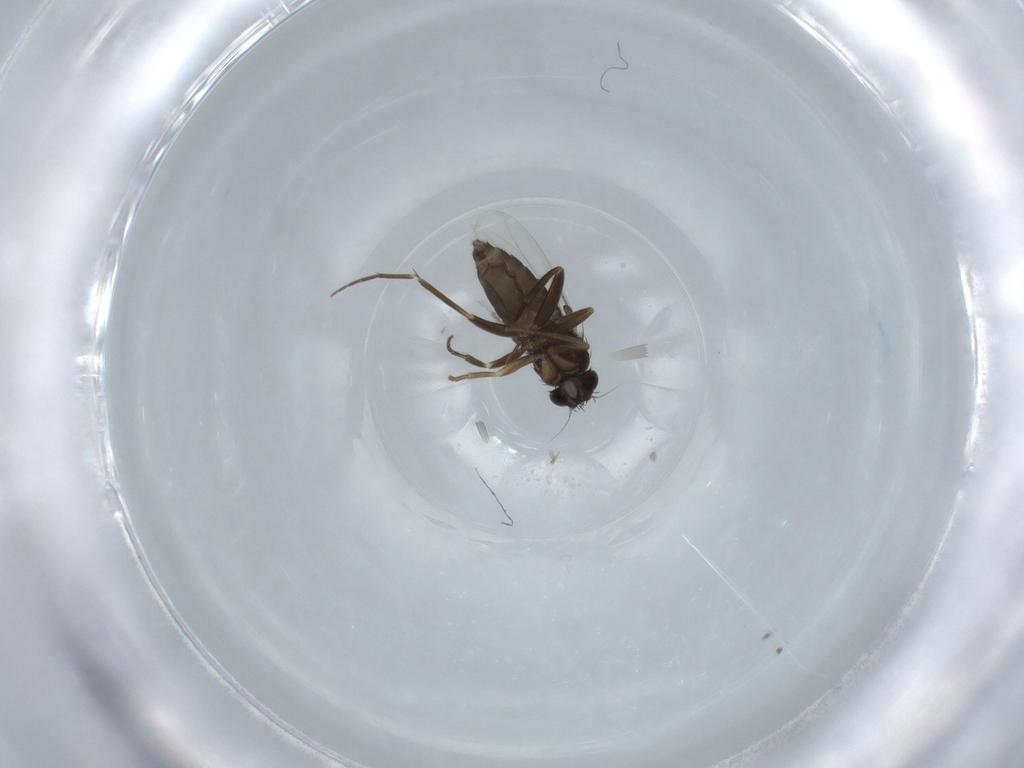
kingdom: Animalia
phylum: Arthropoda
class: Insecta
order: Diptera
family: Phoridae
